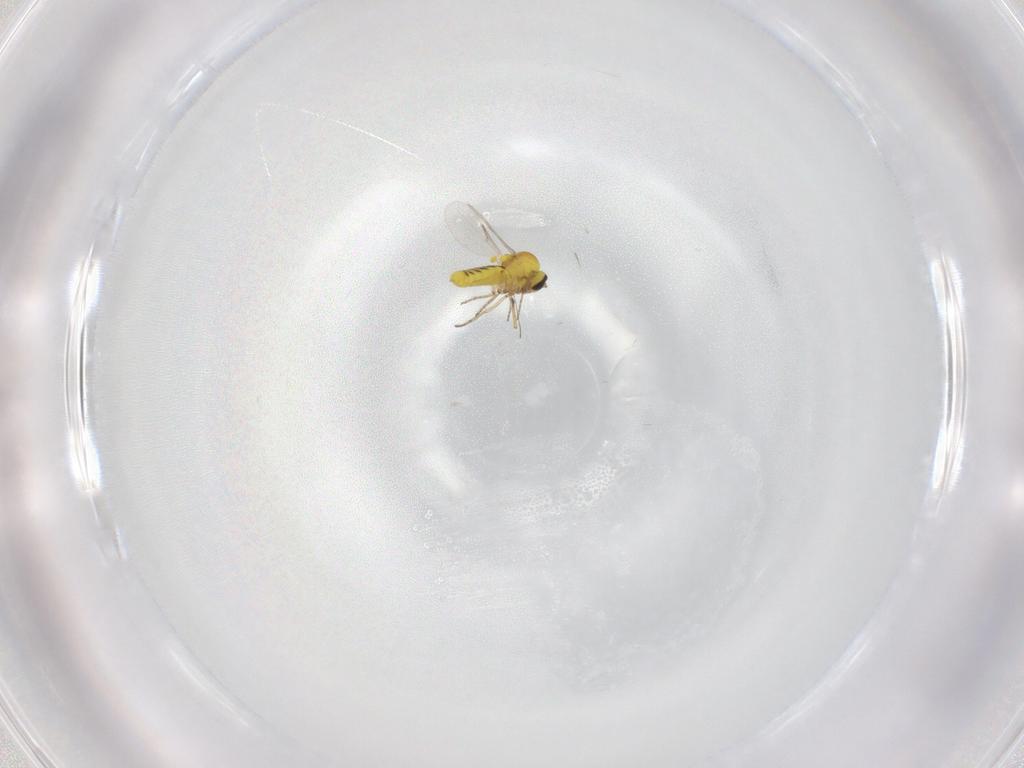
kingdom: Animalia
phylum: Arthropoda
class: Insecta
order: Diptera
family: Ceratopogonidae
